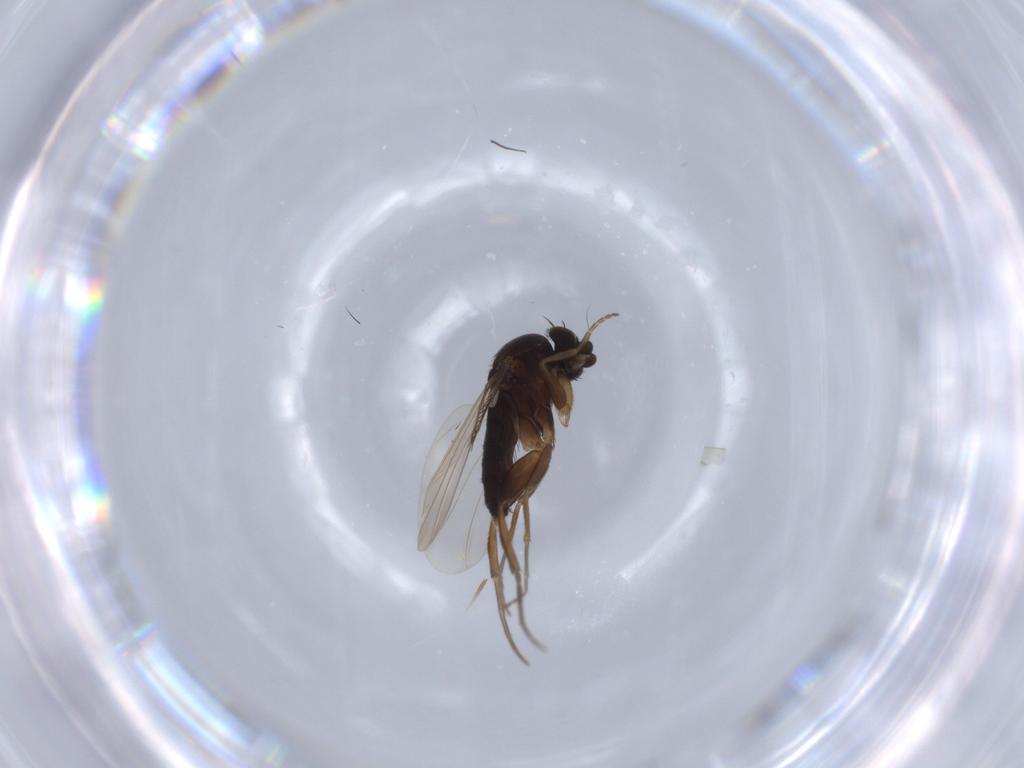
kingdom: Animalia
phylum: Arthropoda
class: Insecta
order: Diptera
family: Phoridae
